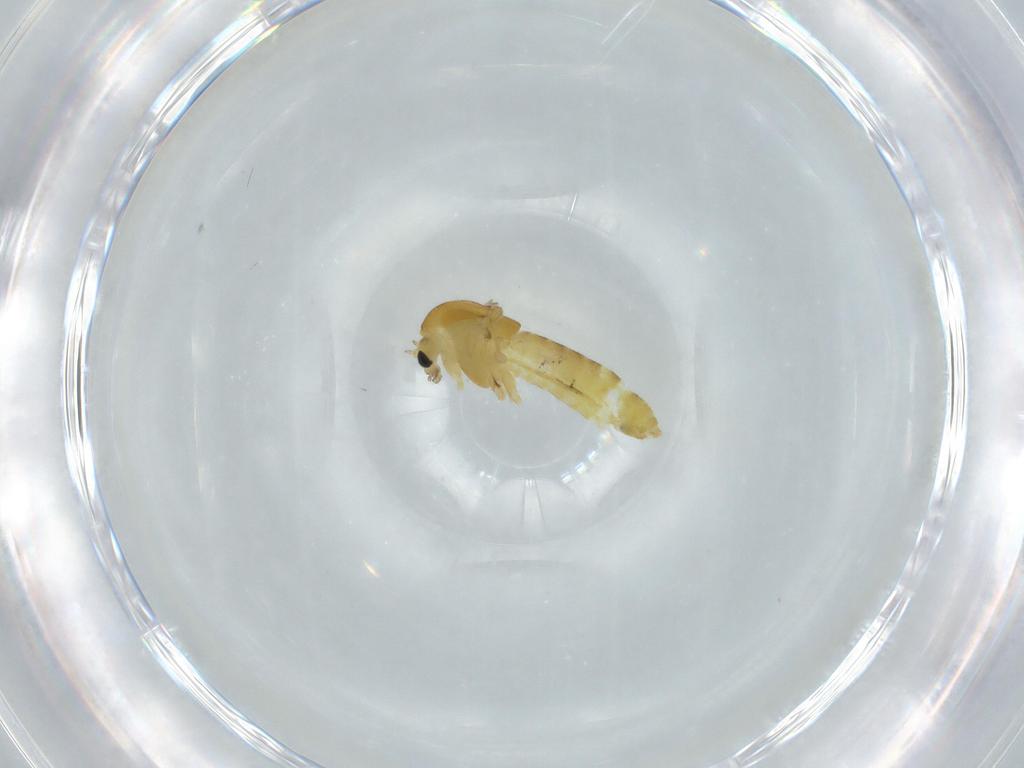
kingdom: Animalia
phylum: Arthropoda
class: Insecta
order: Diptera
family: Chironomidae
